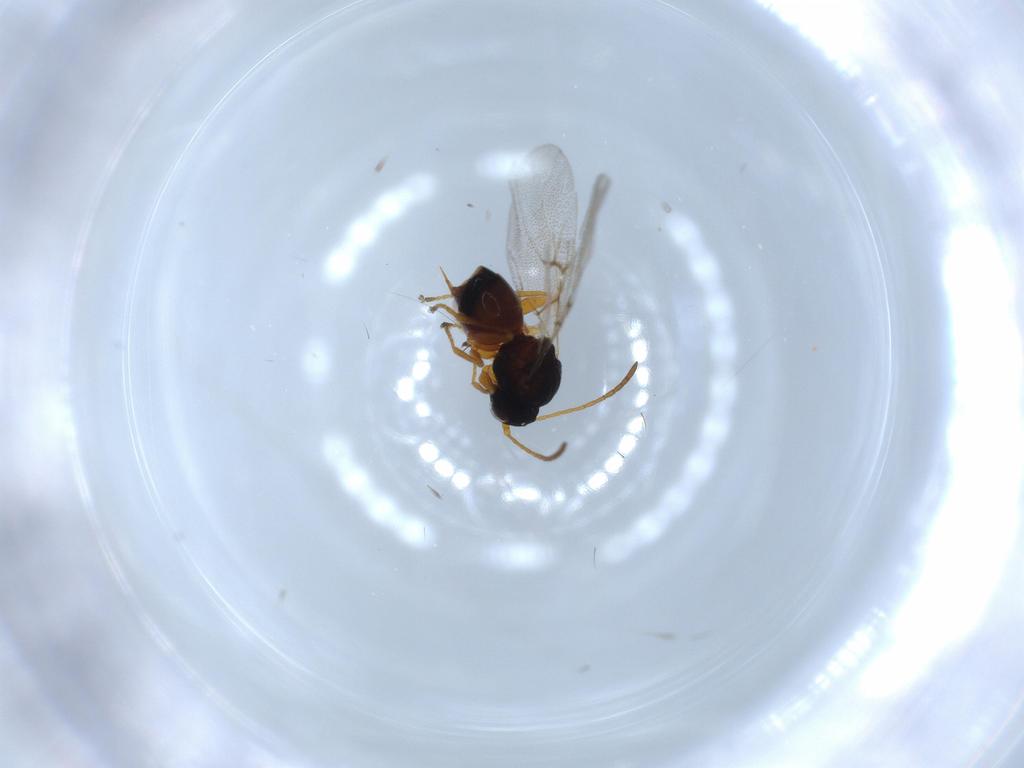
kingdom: Animalia
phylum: Arthropoda
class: Insecta
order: Hymenoptera
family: Cynipidae
